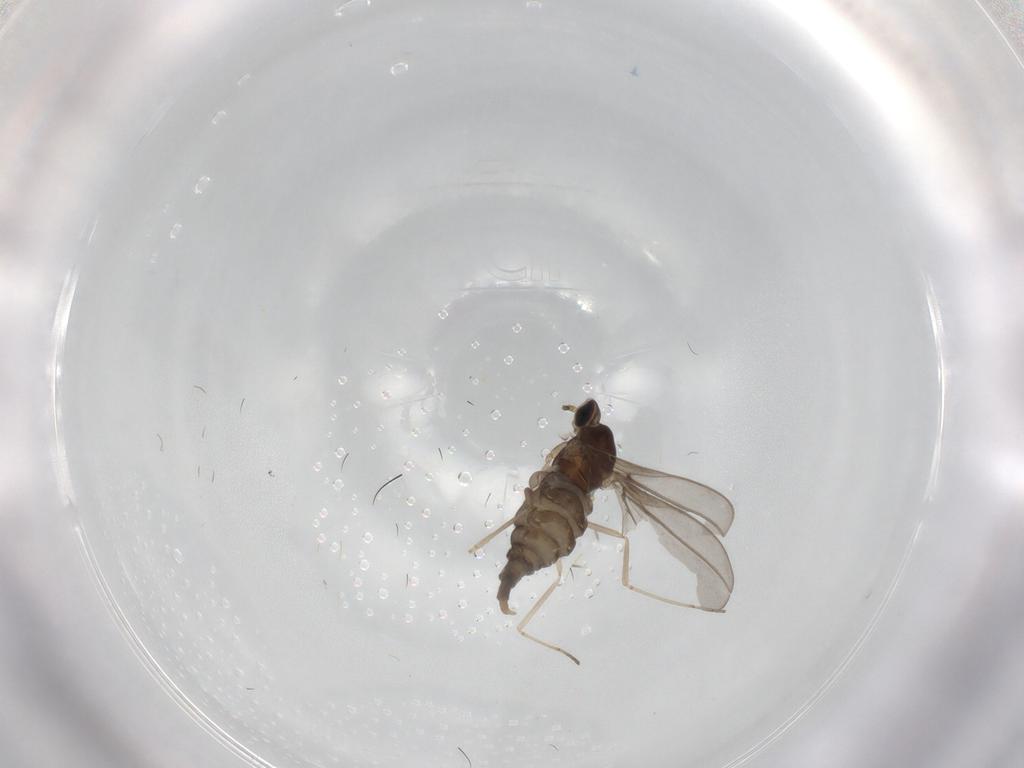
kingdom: Animalia
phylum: Arthropoda
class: Insecta
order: Diptera
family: Cecidomyiidae
